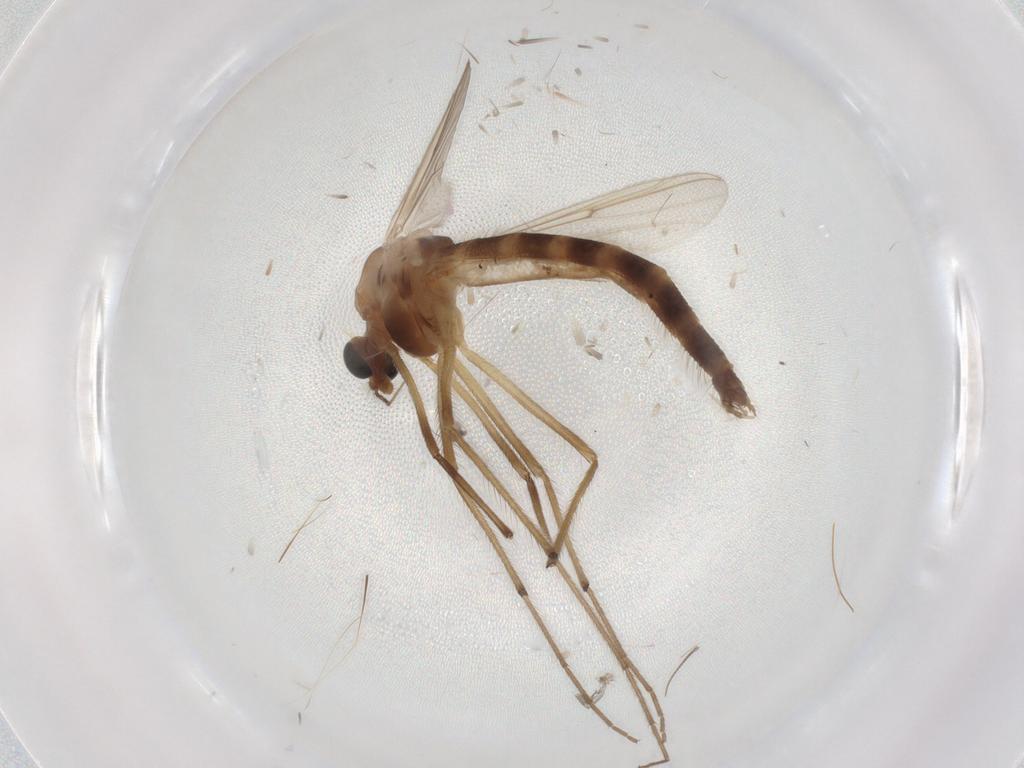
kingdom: Animalia
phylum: Arthropoda
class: Insecta
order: Diptera
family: Chironomidae
